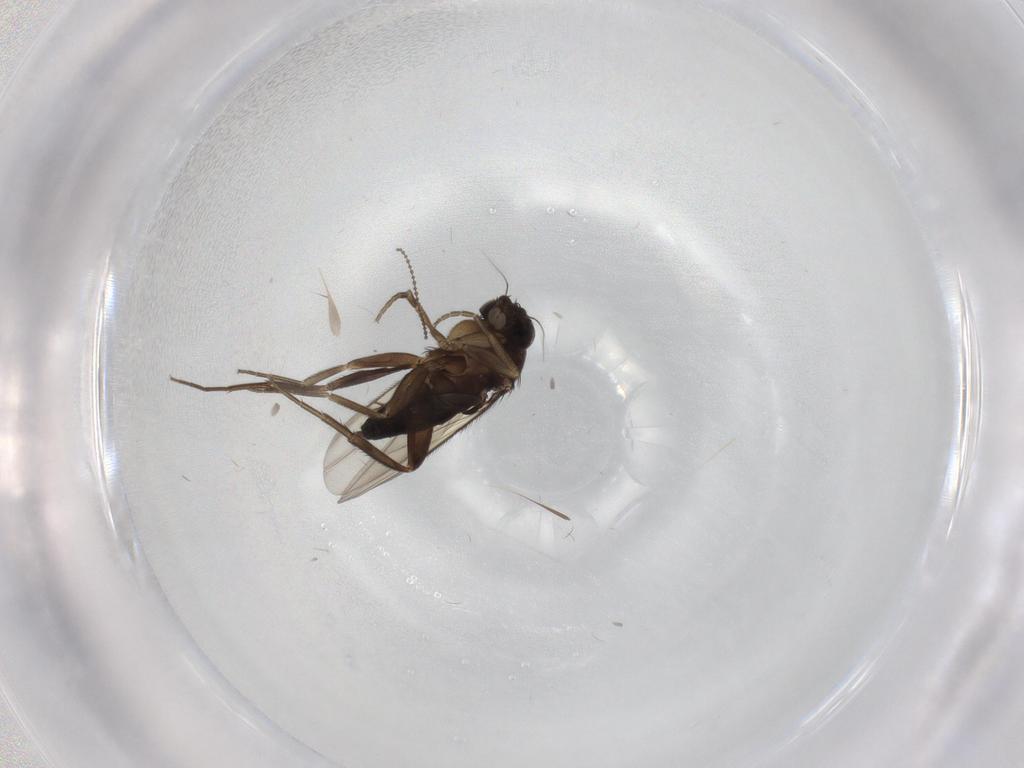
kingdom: Animalia
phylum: Arthropoda
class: Insecta
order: Diptera
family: Phoridae
